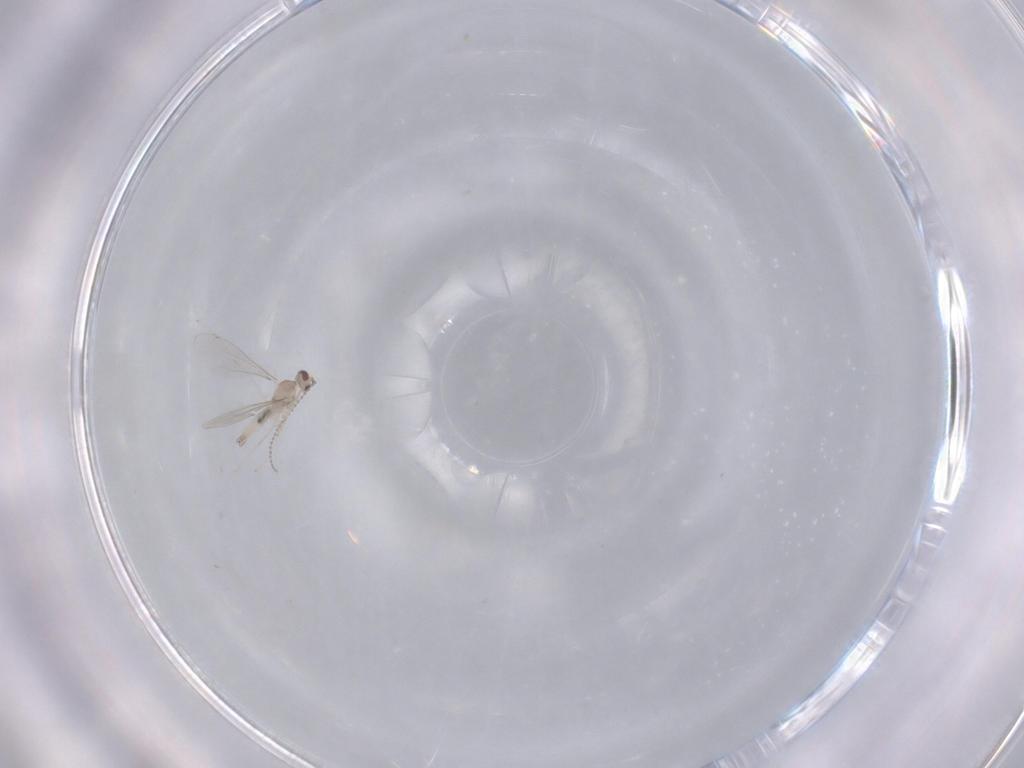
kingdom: Animalia
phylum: Arthropoda
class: Insecta
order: Diptera
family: Cecidomyiidae
